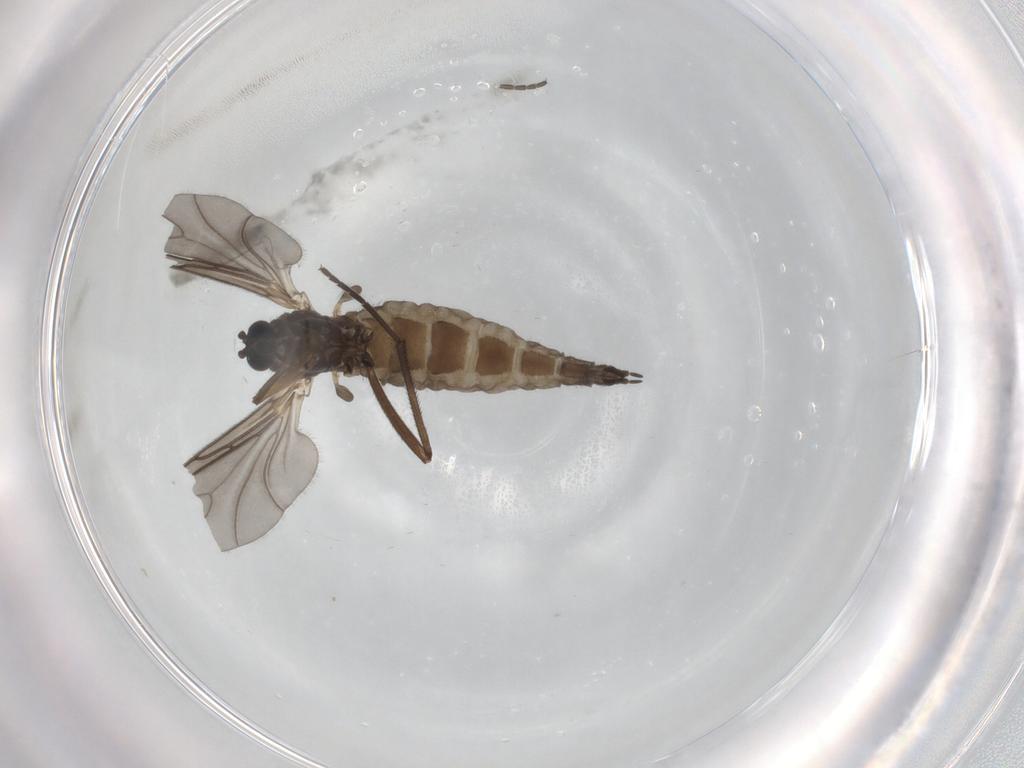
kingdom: Animalia
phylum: Arthropoda
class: Insecta
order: Diptera
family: Sciaridae
